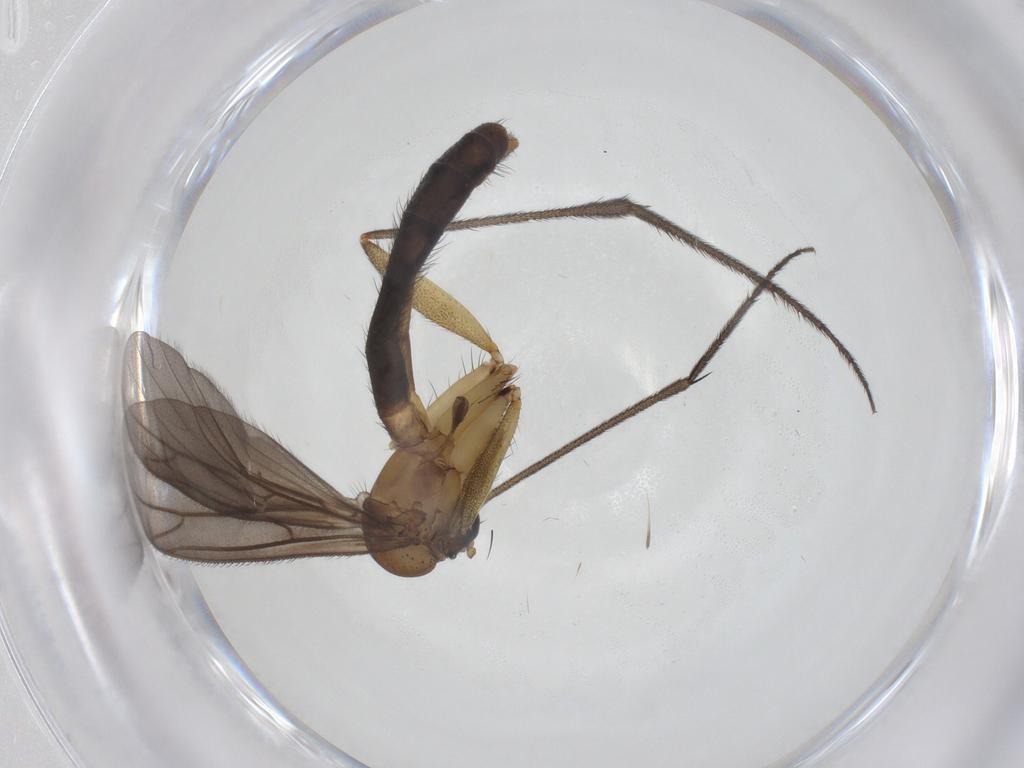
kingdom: Animalia
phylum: Arthropoda
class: Insecta
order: Diptera
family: Ditomyiidae
